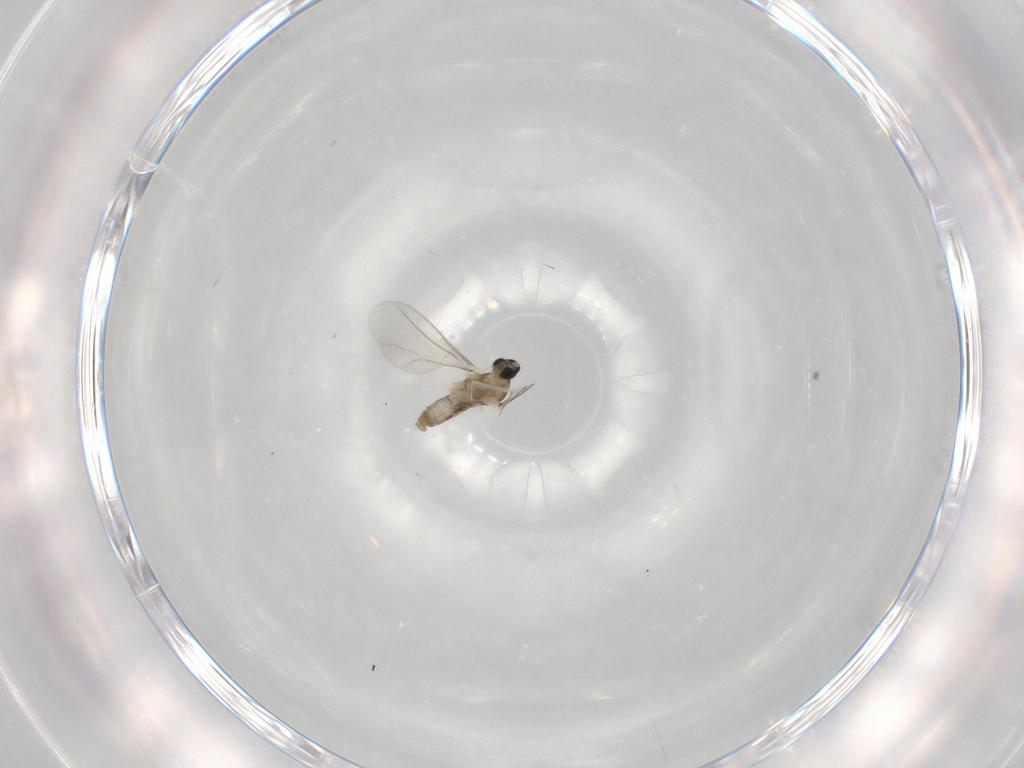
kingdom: Animalia
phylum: Arthropoda
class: Insecta
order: Diptera
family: Cecidomyiidae
